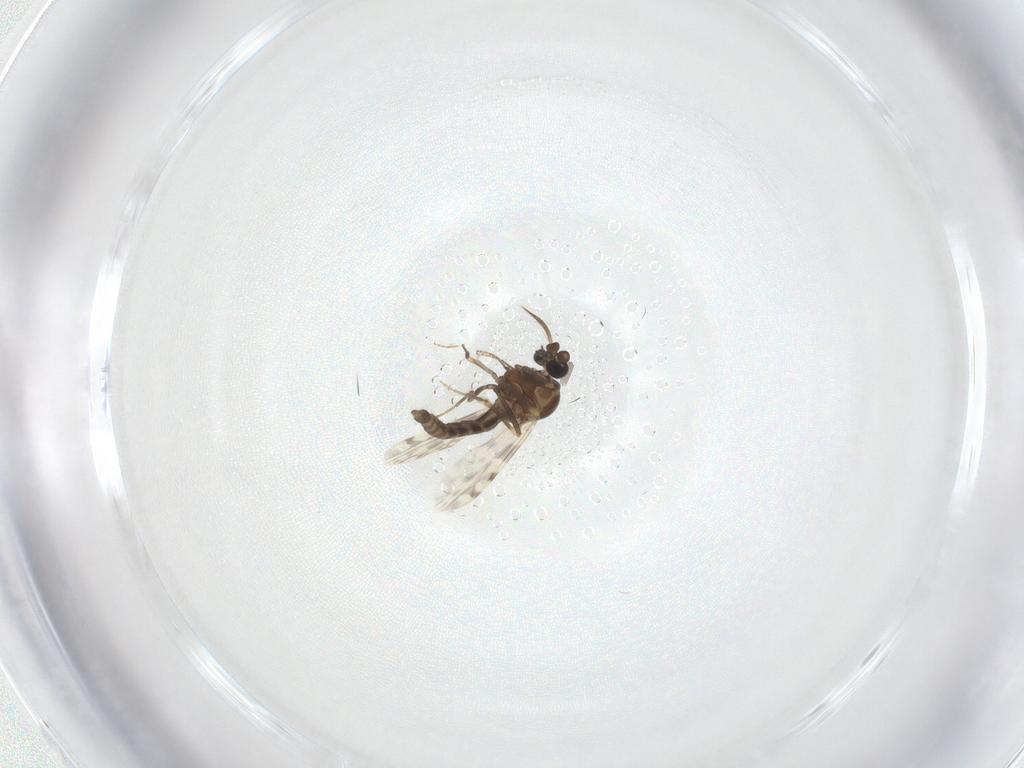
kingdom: Animalia
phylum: Arthropoda
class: Insecta
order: Diptera
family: Ceratopogonidae
